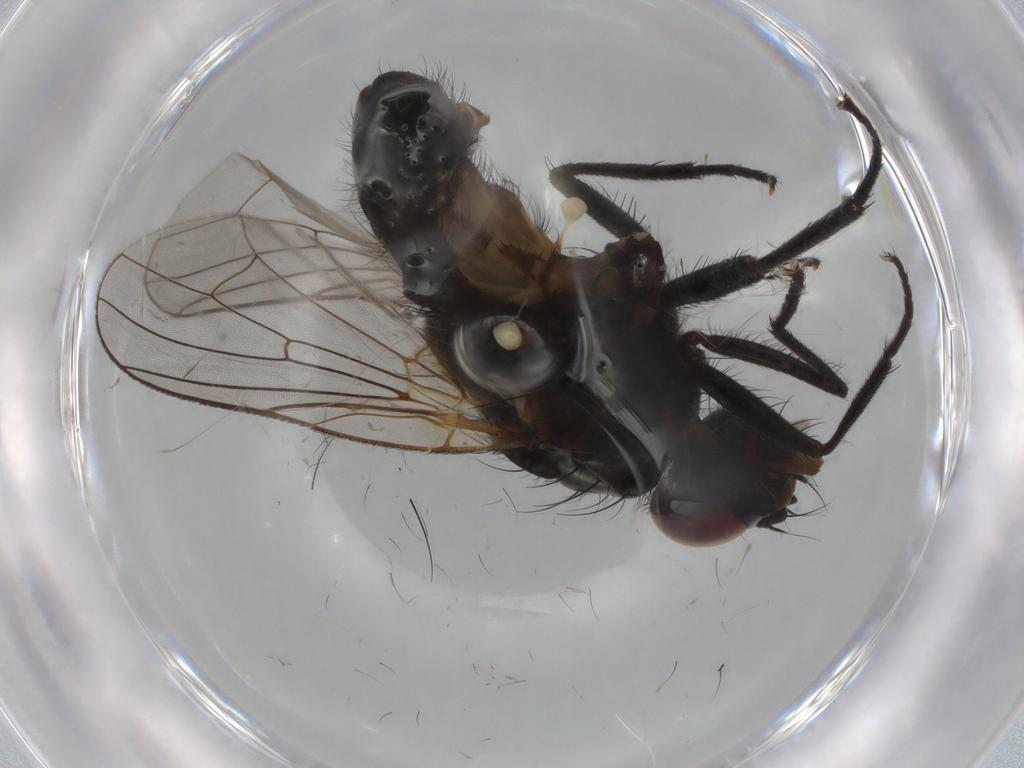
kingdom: Animalia
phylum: Arthropoda
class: Insecta
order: Diptera
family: Anthomyiidae
